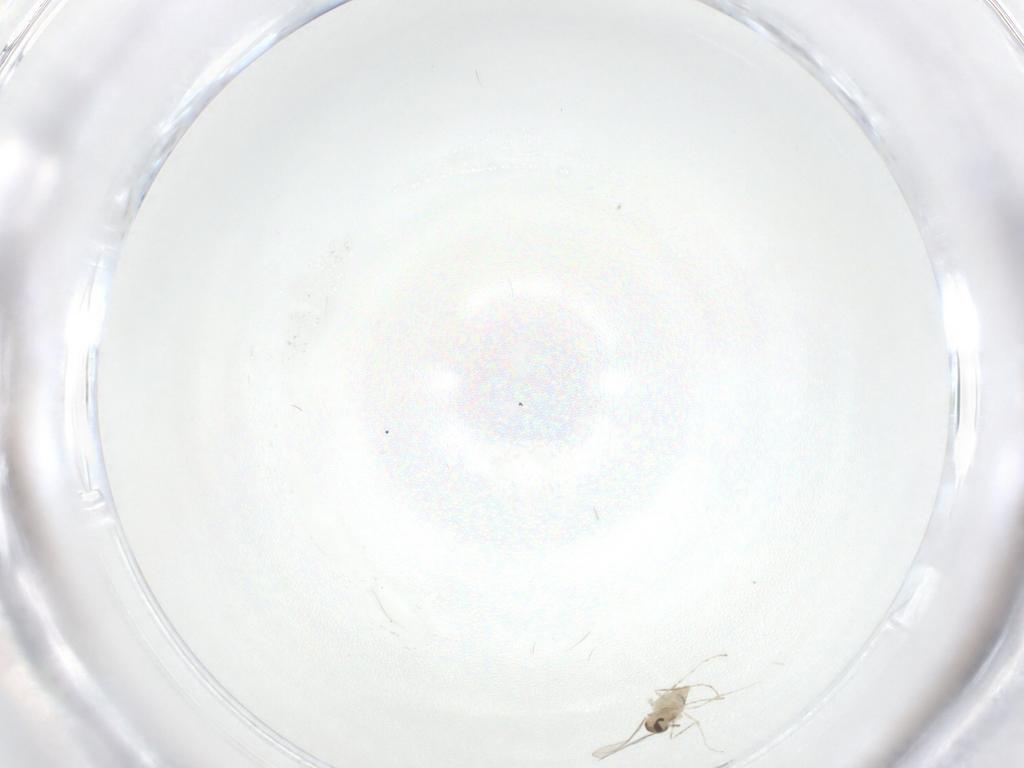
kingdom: Animalia
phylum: Arthropoda
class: Insecta
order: Diptera
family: Cecidomyiidae
